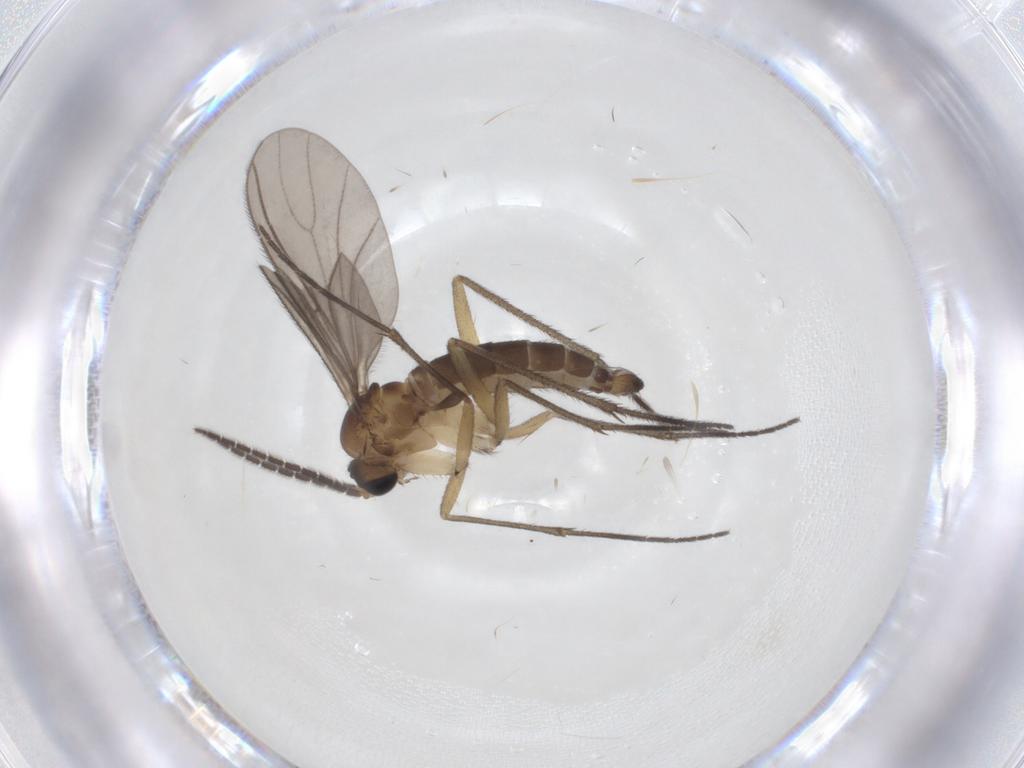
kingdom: Animalia
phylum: Arthropoda
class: Insecta
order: Diptera
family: Sciaridae
